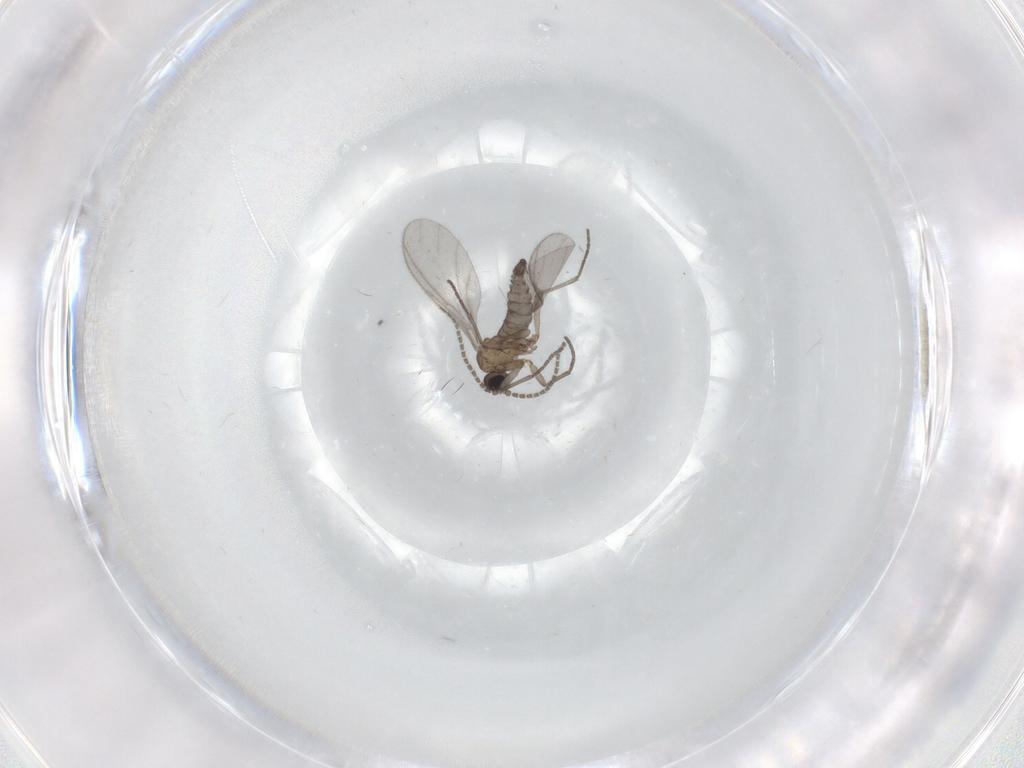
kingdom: Animalia
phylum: Arthropoda
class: Insecta
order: Diptera
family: Sciaridae
